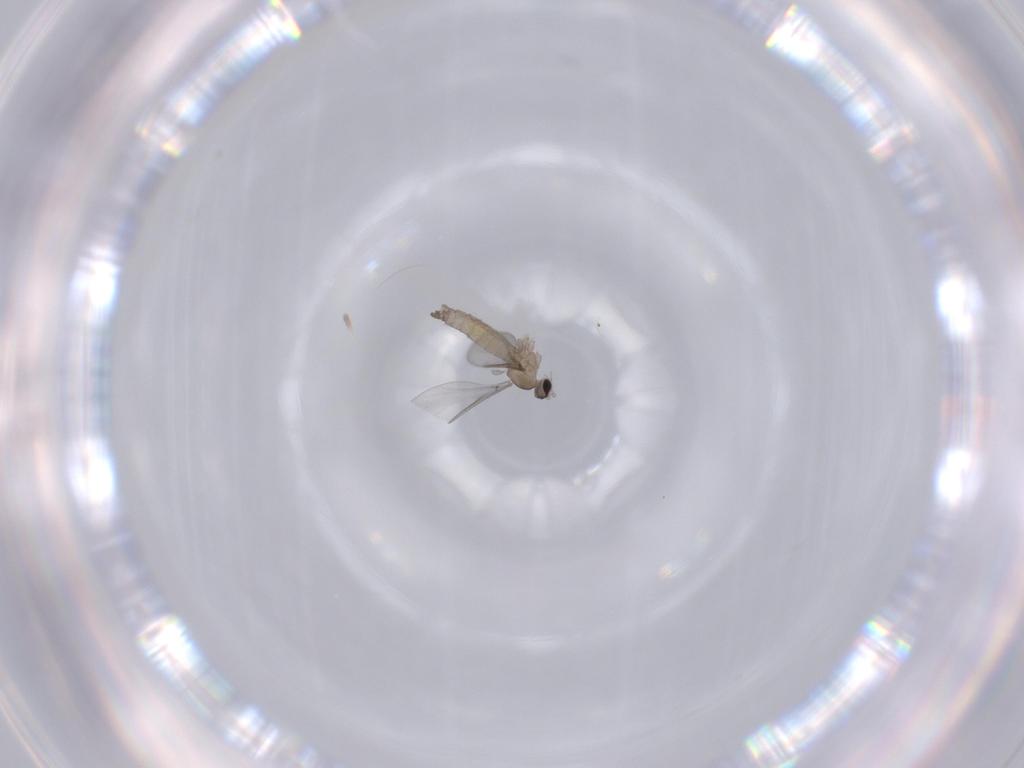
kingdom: Animalia
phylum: Arthropoda
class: Insecta
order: Diptera
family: Cecidomyiidae
